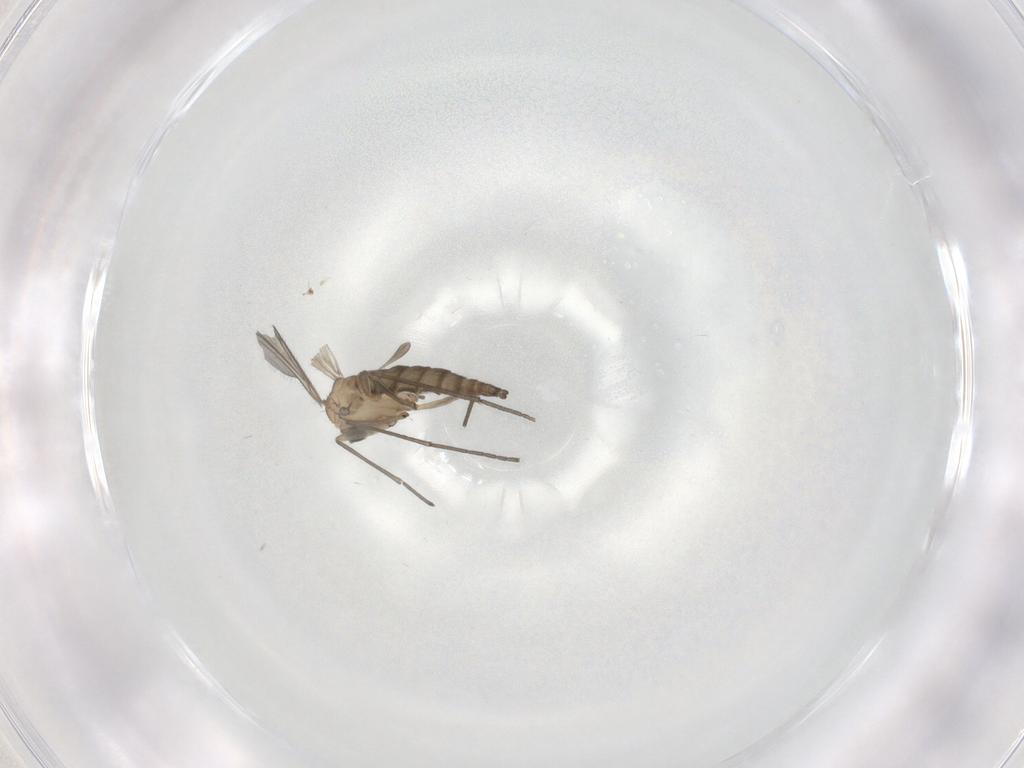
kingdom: Animalia
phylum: Arthropoda
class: Insecta
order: Diptera
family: Chironomidae
